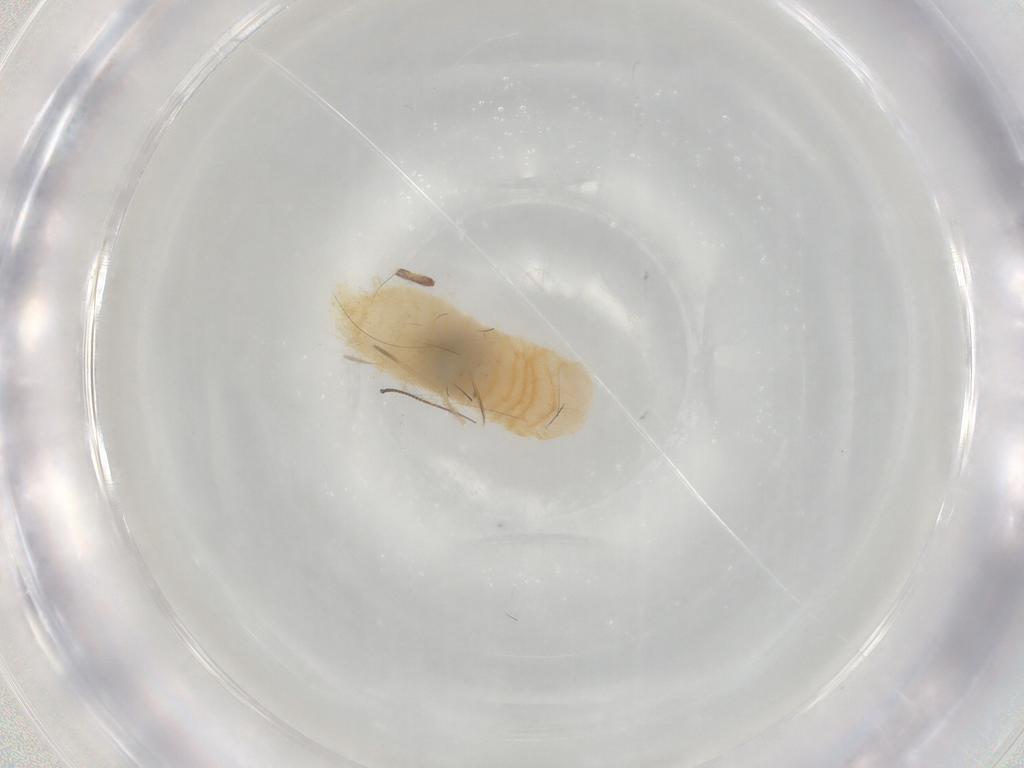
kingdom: Animalia
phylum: Arthropoda
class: Insecta
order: Diptera
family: Chironomidae
